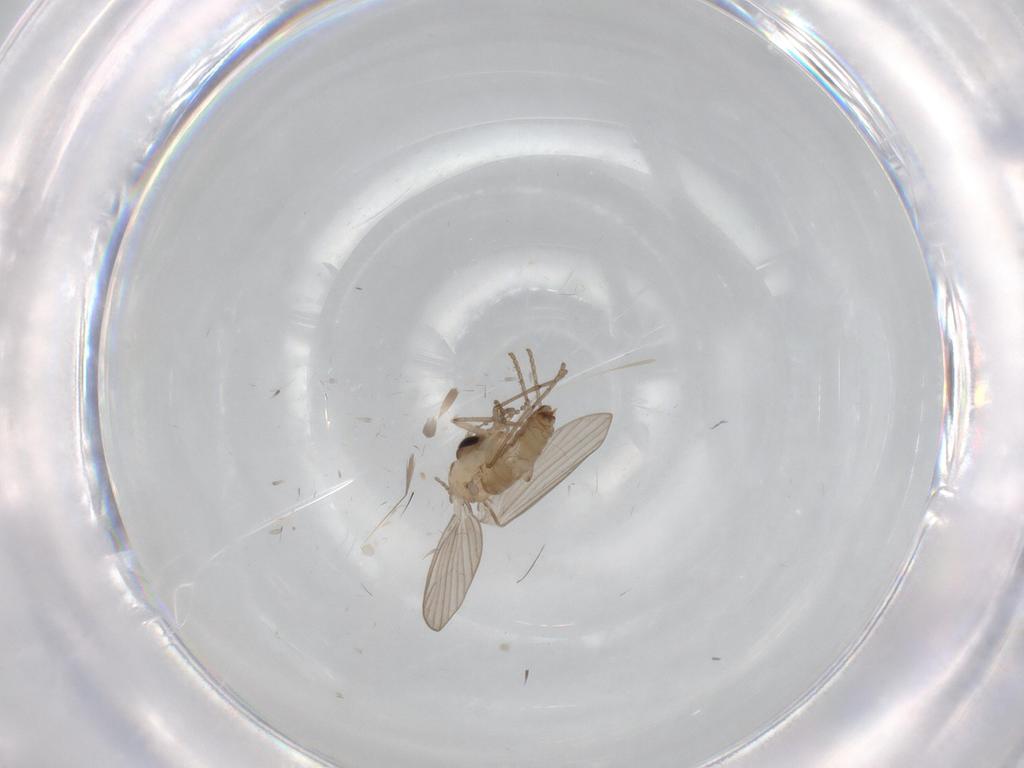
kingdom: Animalia
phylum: Arthropoda
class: Insecta
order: Diptera
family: Psychodidae
